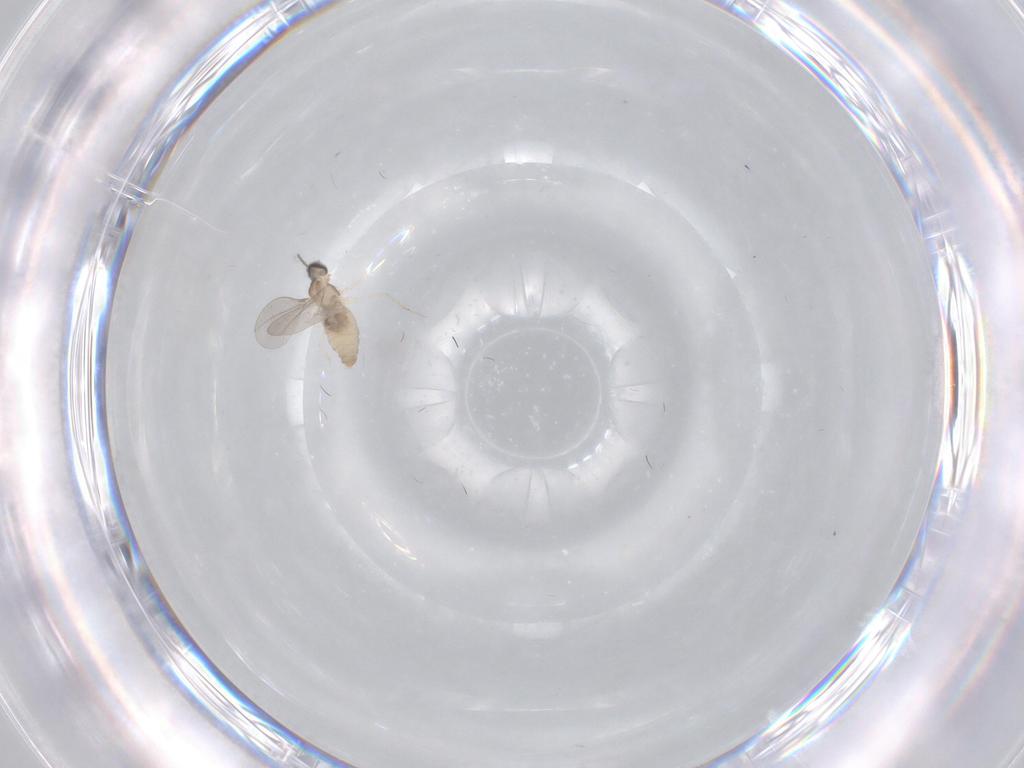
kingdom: Animalia
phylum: Arthropoda
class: Insecta
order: Diptera
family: Cecidomyiidae
